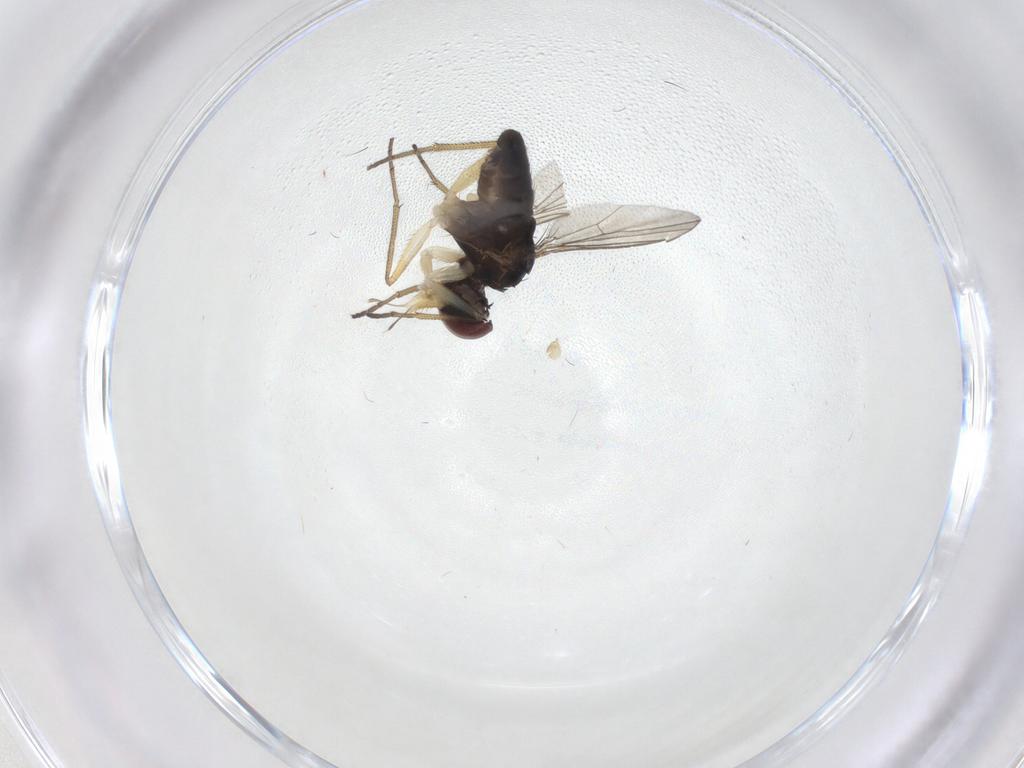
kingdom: Animalia
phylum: Arthropoda
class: Insecta
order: Diptera
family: Dolichopodidae
